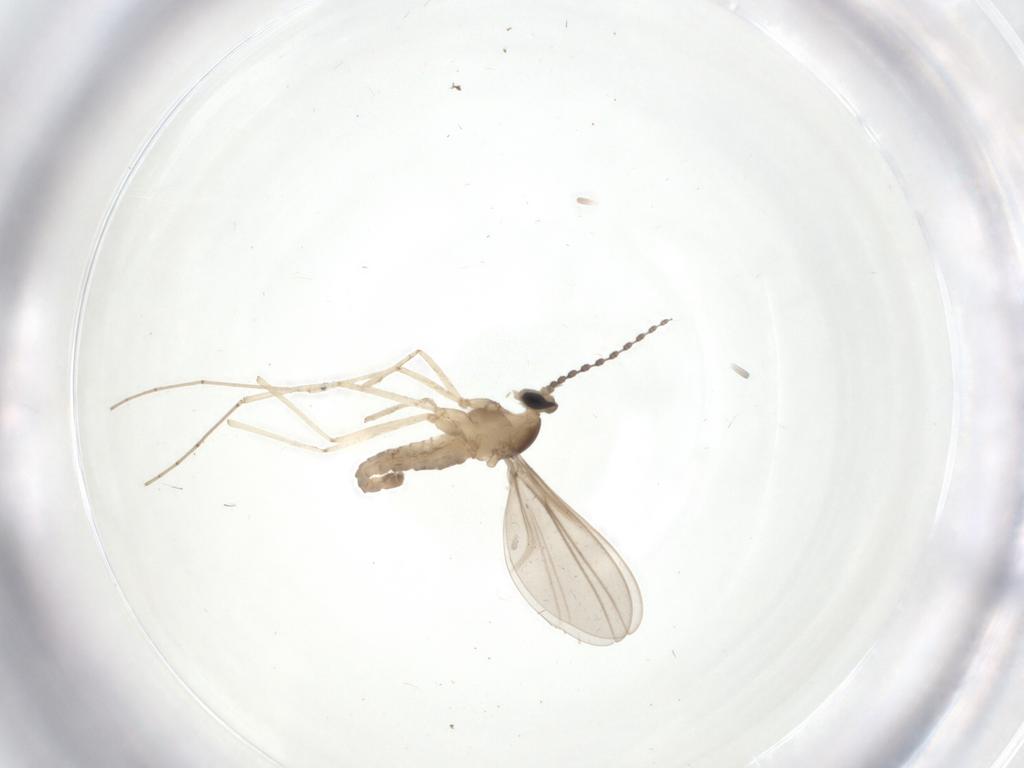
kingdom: Animalia
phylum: Arthropoda
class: Insecta
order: Diptera
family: Cecidomyiidae
